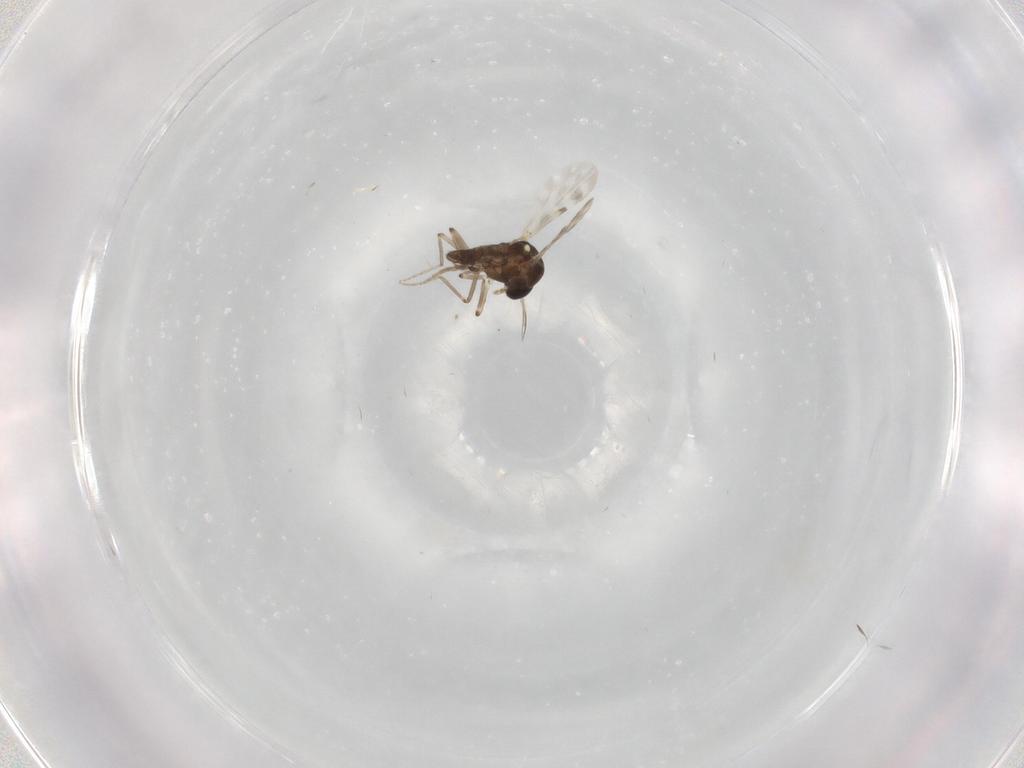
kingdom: Animalia
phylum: Arthropoda
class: Insecta
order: Diptera
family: Ceratopogonidae
